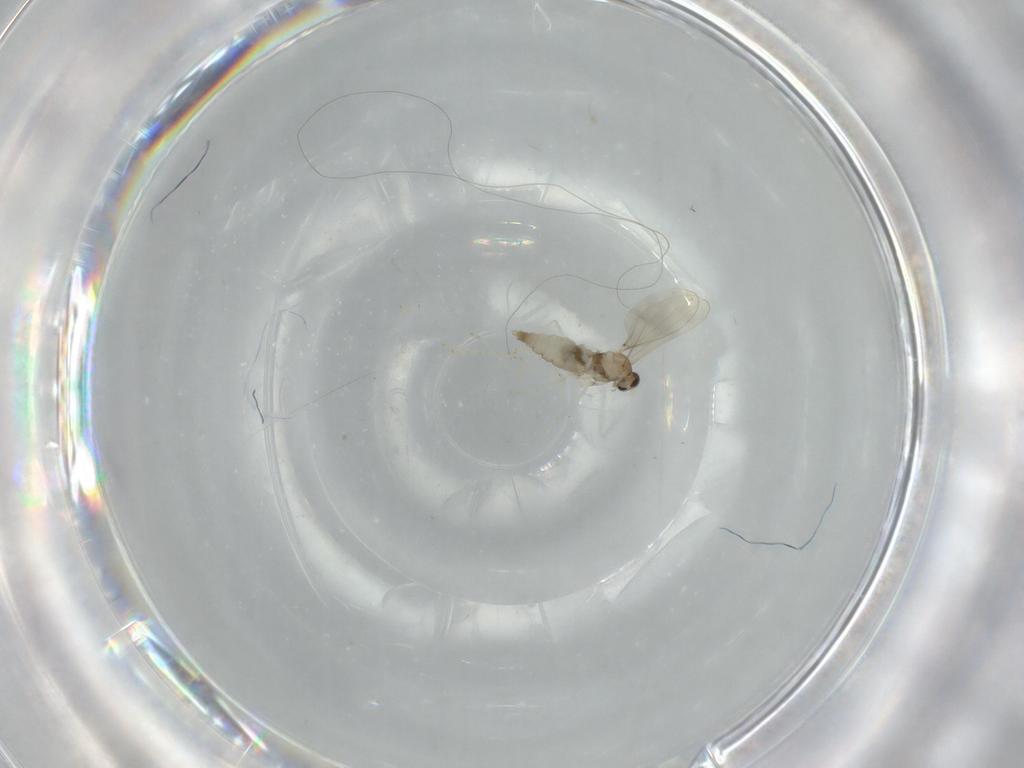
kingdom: Animalia
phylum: Arthropoda
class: Insecta
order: Diptera
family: Cecidomyiidae
